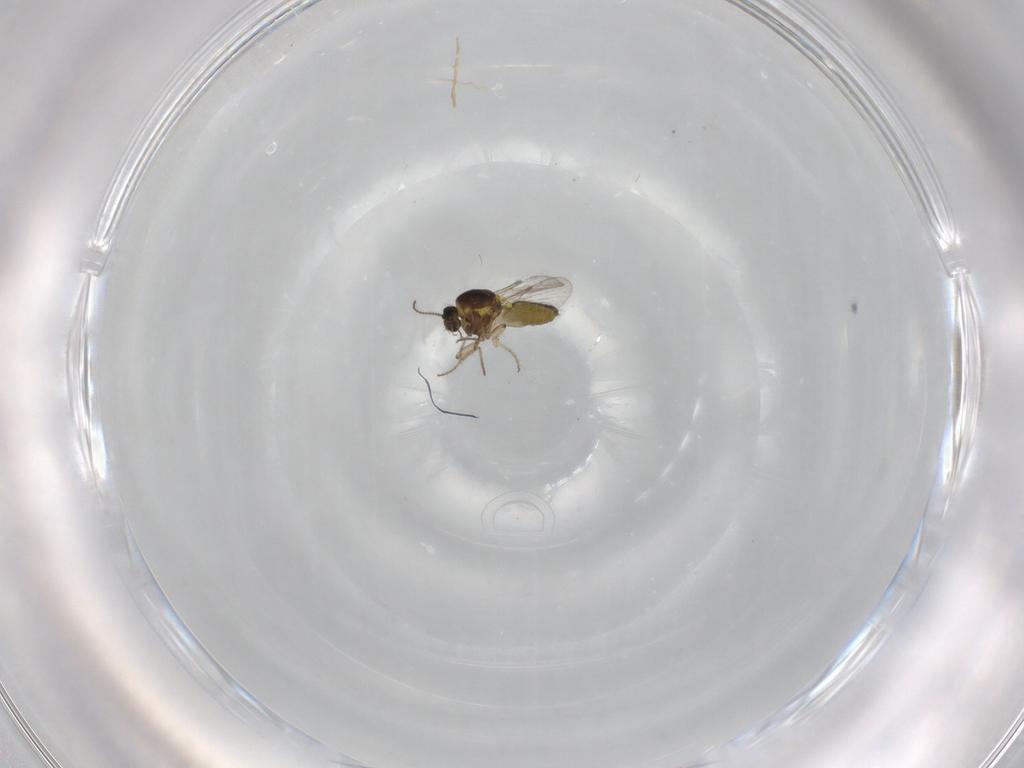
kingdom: Animalia
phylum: Arthropoda
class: Insecta
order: Diptera
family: Ceratopogonidae
